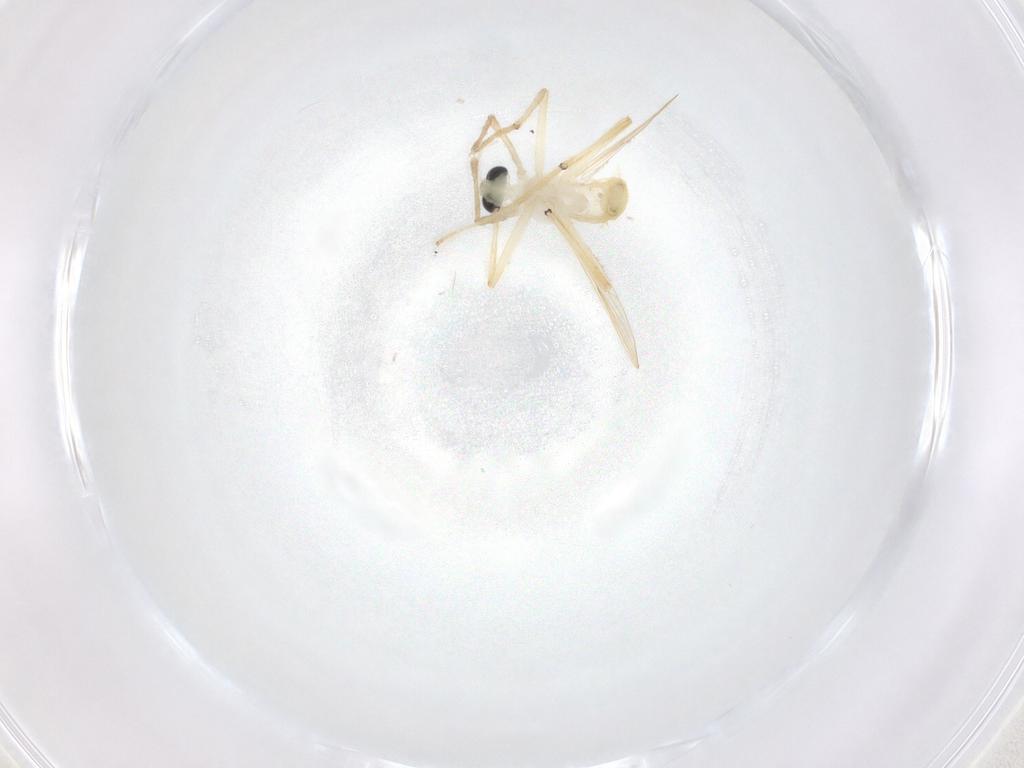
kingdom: Animalia
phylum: Arthropoda
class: Insecta
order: Diptera
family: Chironomidae
